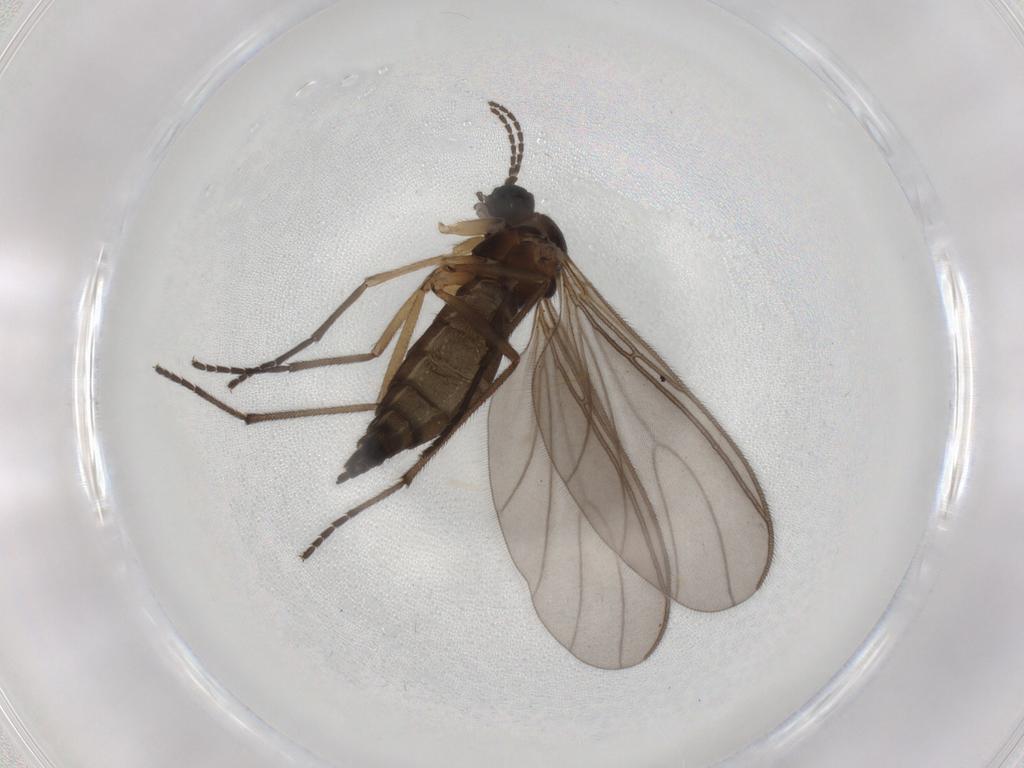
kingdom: Animalia
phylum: Arthropoda
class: Insecta
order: Diptera
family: Sciaridae
